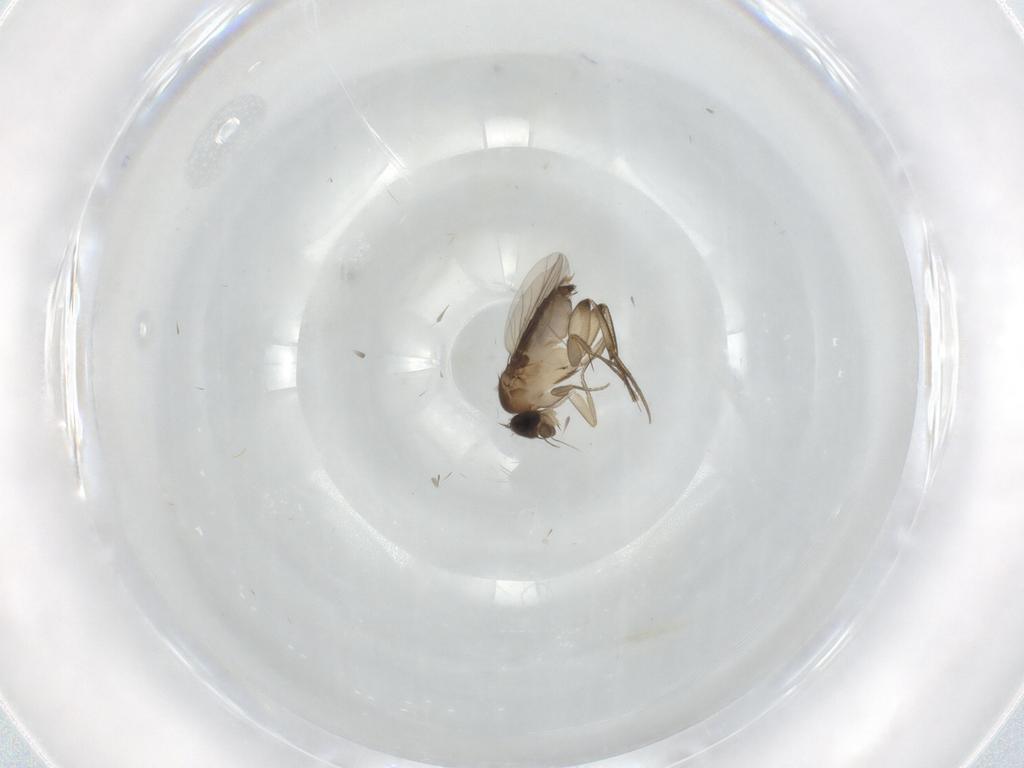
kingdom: Animalia
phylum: Arthropoda
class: Insecta
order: Diptera
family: Phoridae
